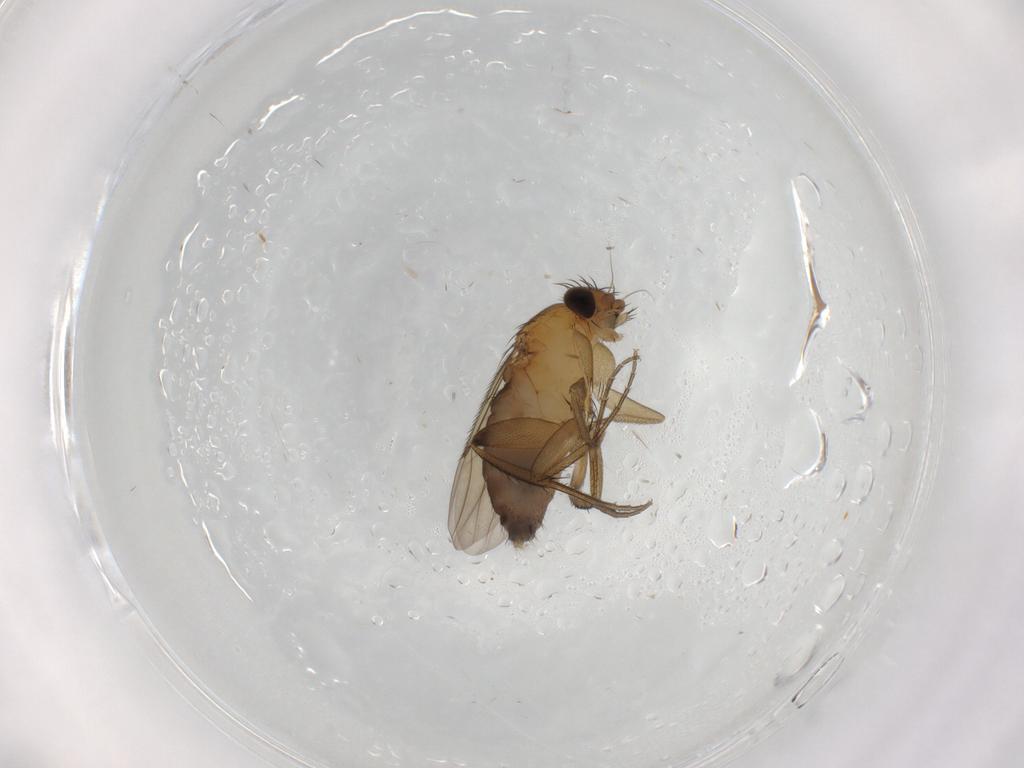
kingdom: Animalia
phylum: Arthropoda
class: Insecta
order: Diptera
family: Phoridae
